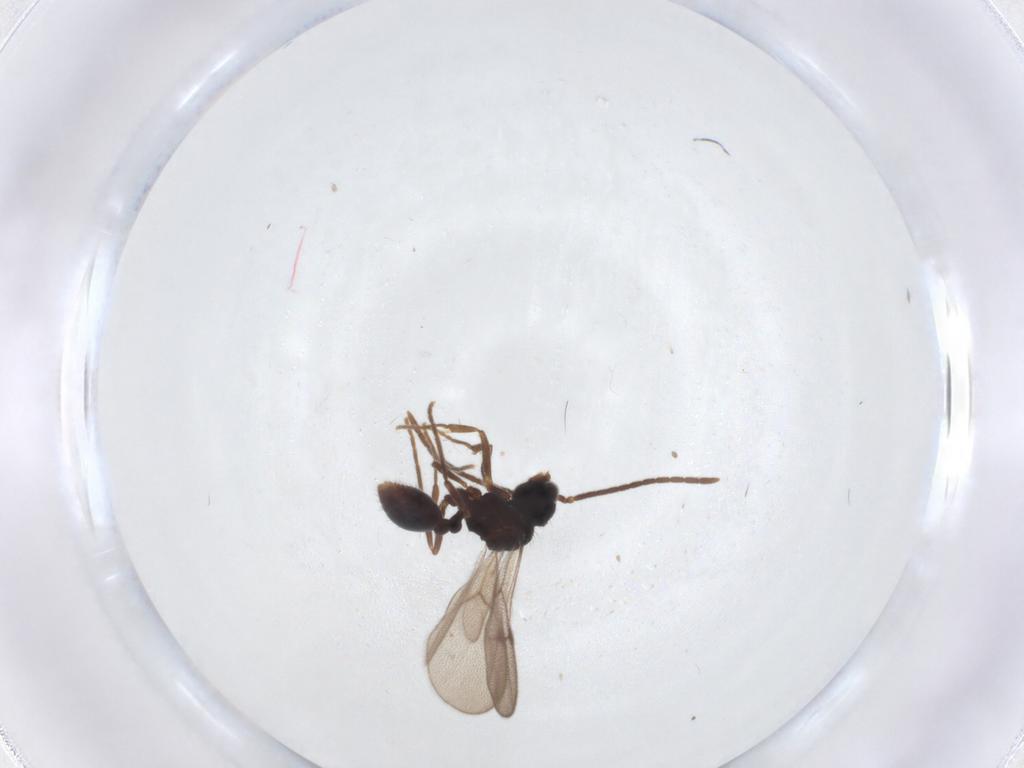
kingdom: Animalia
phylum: Arthropoda
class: Insecta
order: Hymenoptera
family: Formicidae
